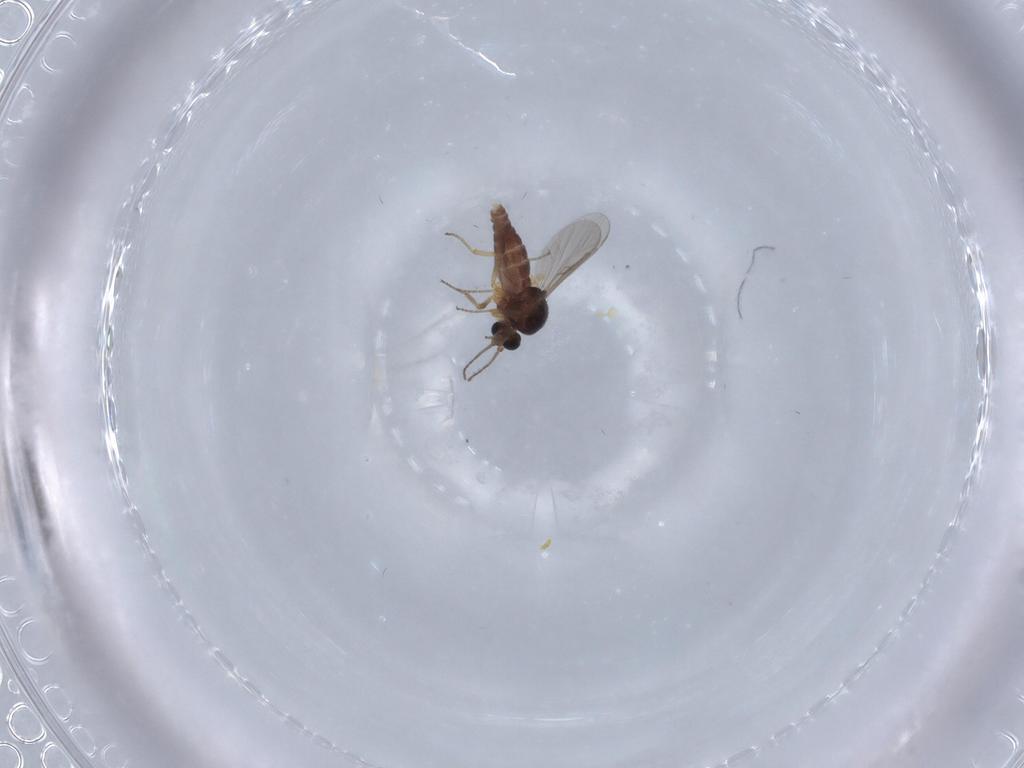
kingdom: Animalia
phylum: Arthropoda
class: Insecta
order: Diptera
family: Ceratopogonidae
